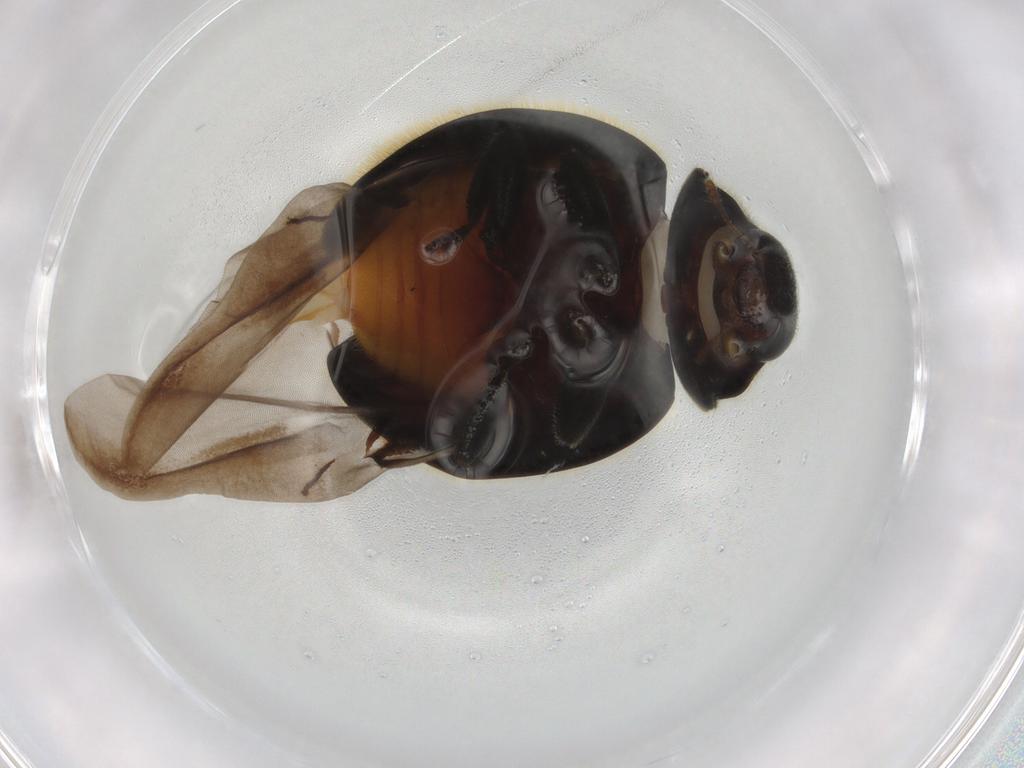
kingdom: Animalia
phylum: Arthropoda
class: Insecta
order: Coleoptera
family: Coccinellidae
